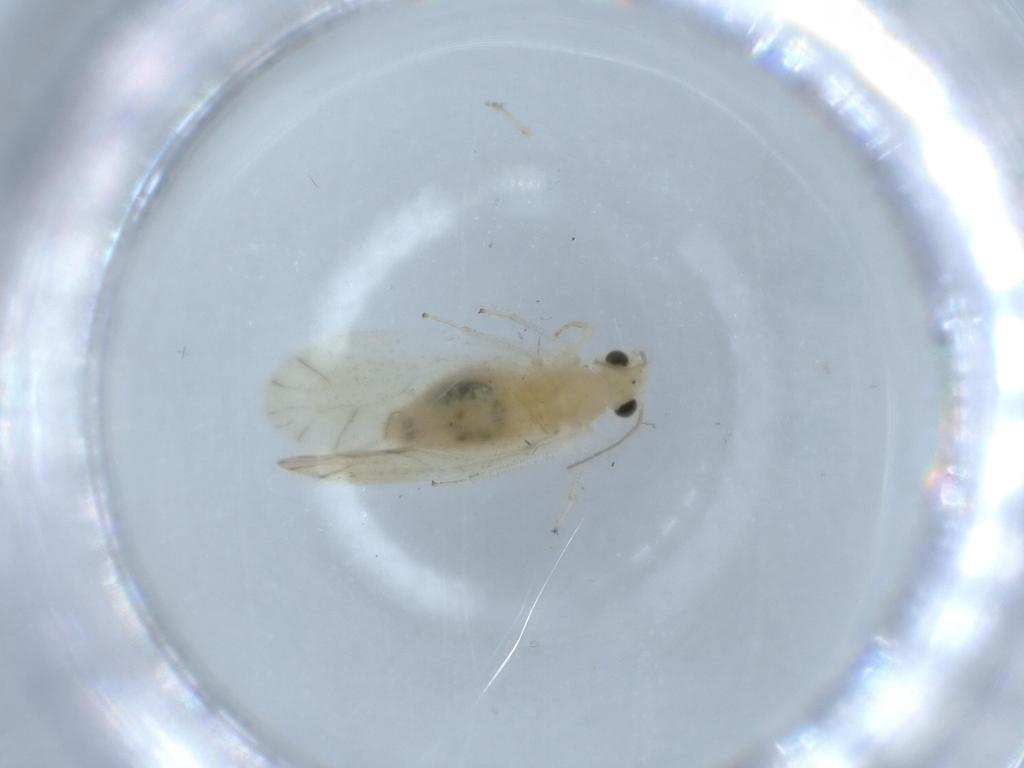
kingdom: Animalia
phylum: Arthropoda
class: Insecta
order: Psocodea
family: Caeciliusidae
